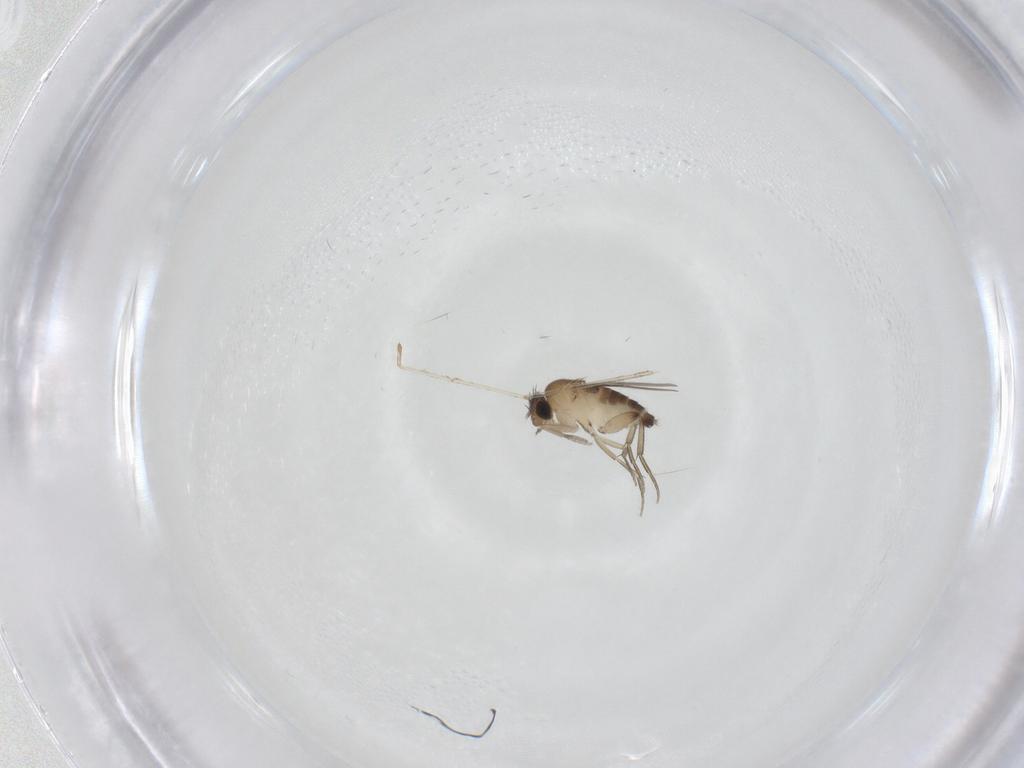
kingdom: Animalia
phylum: Arthropoda
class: Insecta
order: Diptera
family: Phoridae
